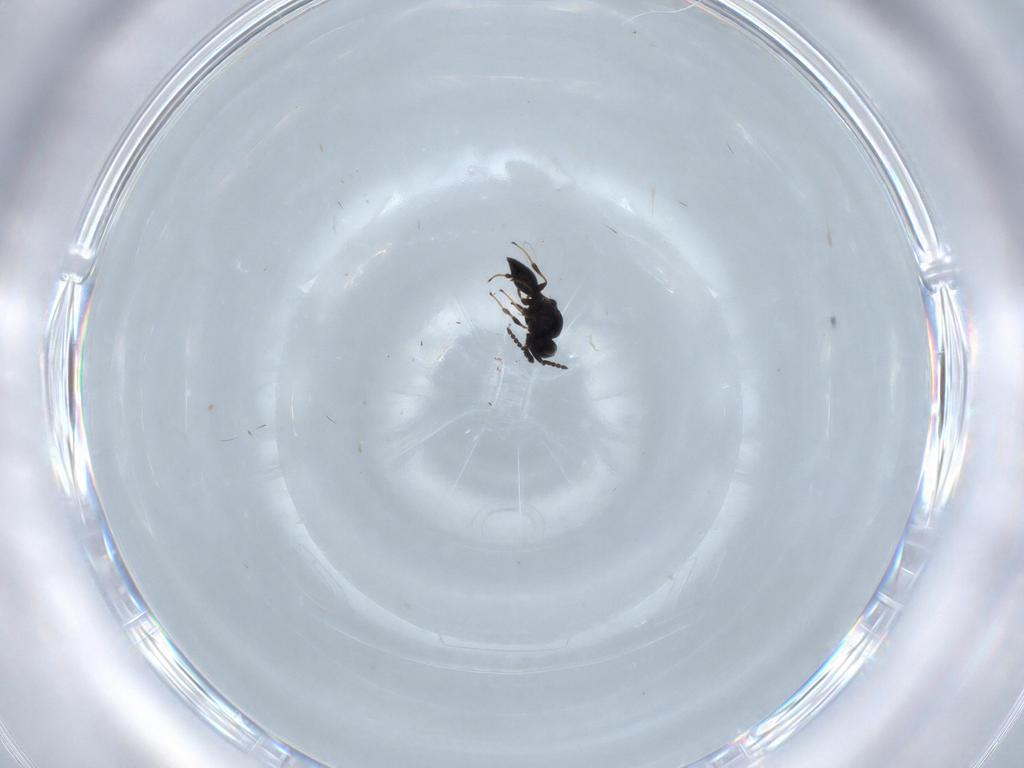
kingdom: Animalia
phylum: Arthropoda
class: Insecta
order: Hymenoptera
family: Platygastridae
